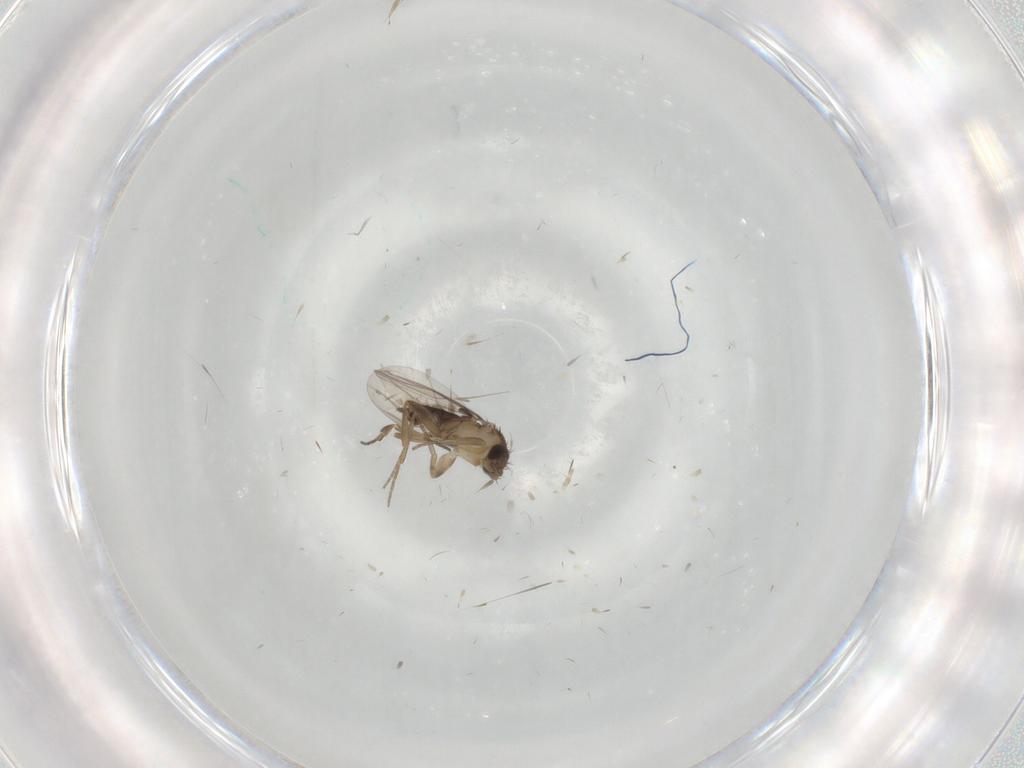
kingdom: Animalia
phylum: Arthropoda
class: Insecta
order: Diptera
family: Phoridae
